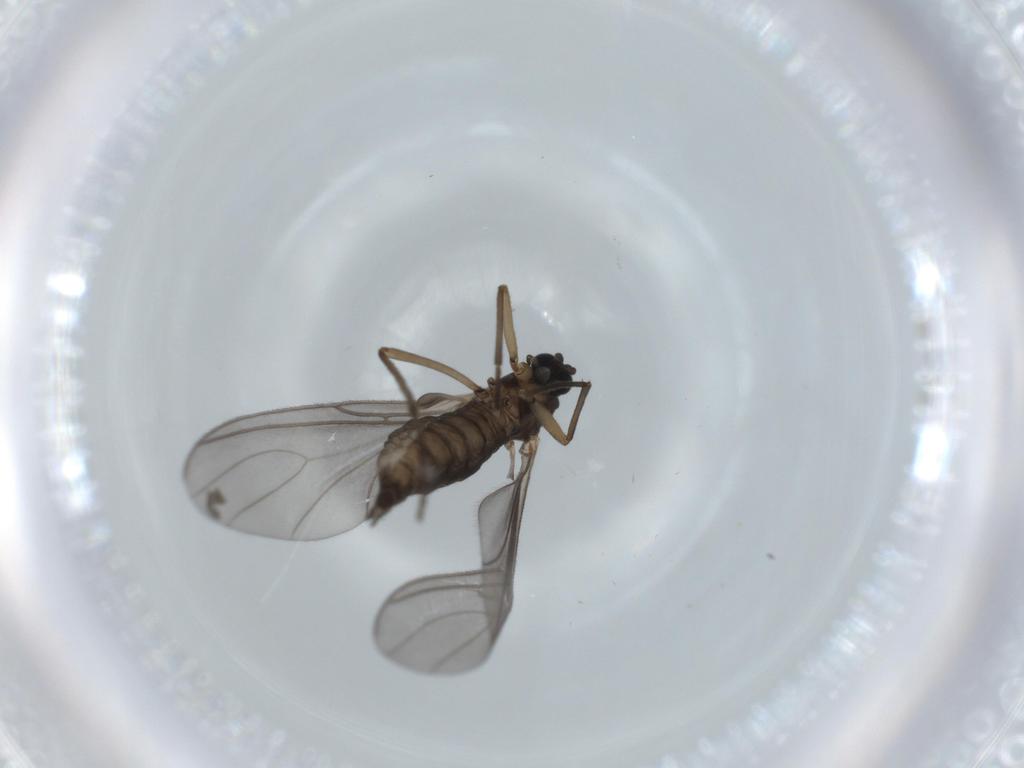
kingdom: Animalia
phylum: Arthropoda
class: Insecta
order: Diptera
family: Sciaridae
